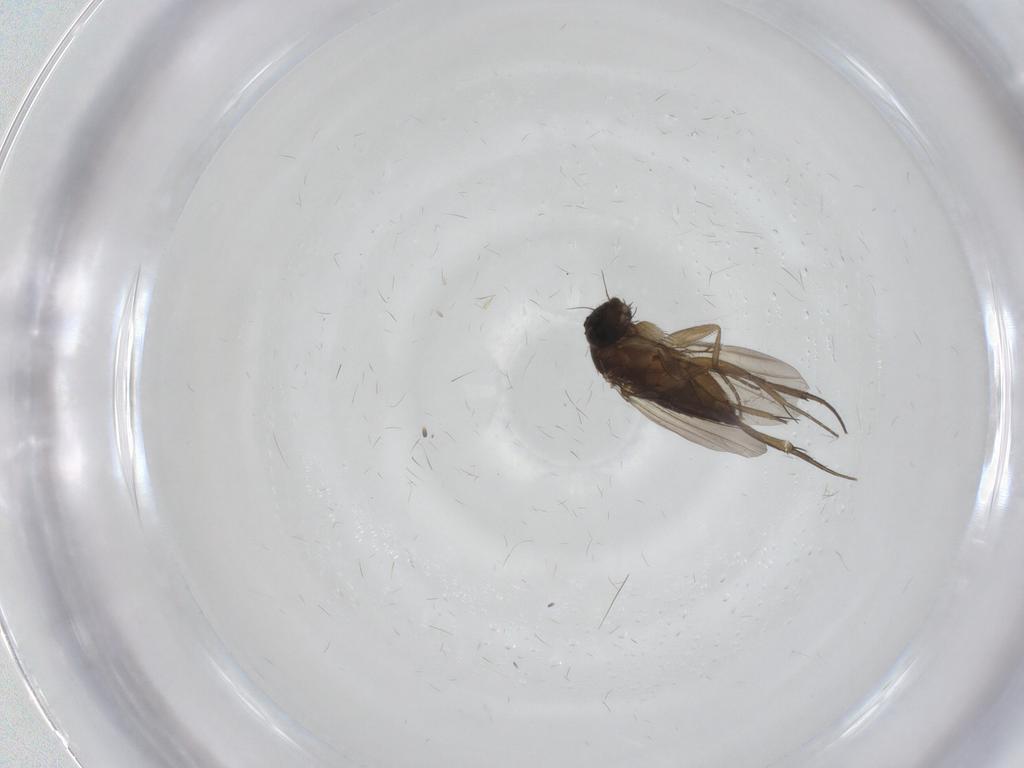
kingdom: Animalia
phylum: Arthropoda
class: Insecta
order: Diptera
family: Phoridae
